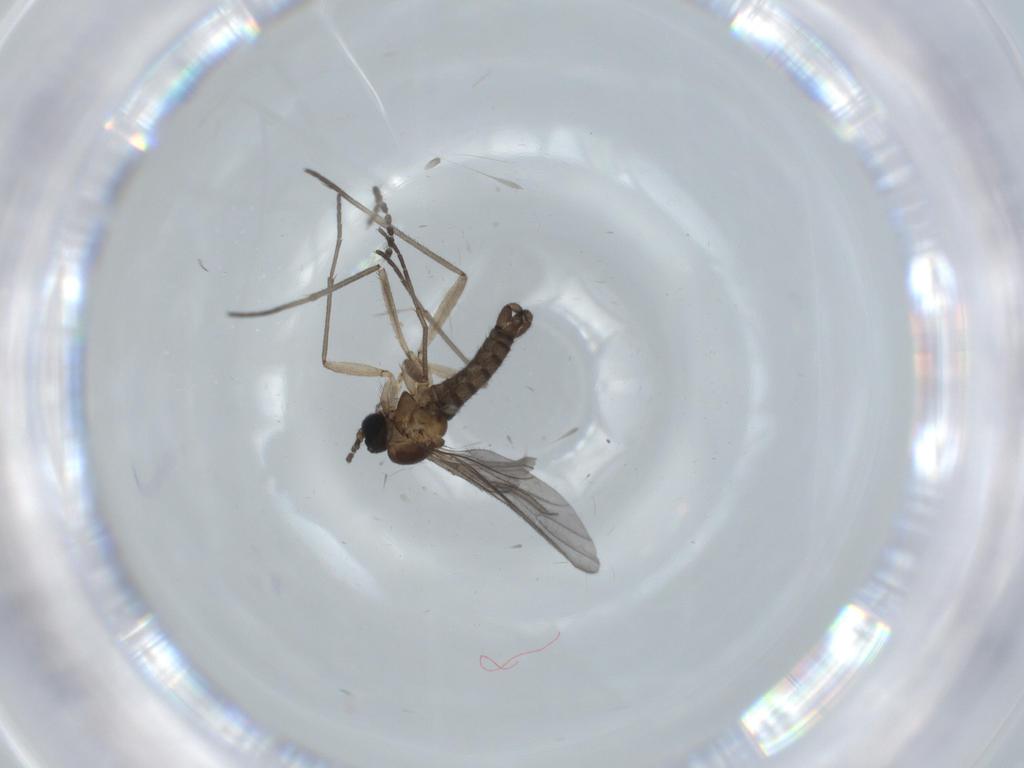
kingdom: Animalia
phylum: Arthropoda
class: Insecta
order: Diptera
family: Sciaridae
